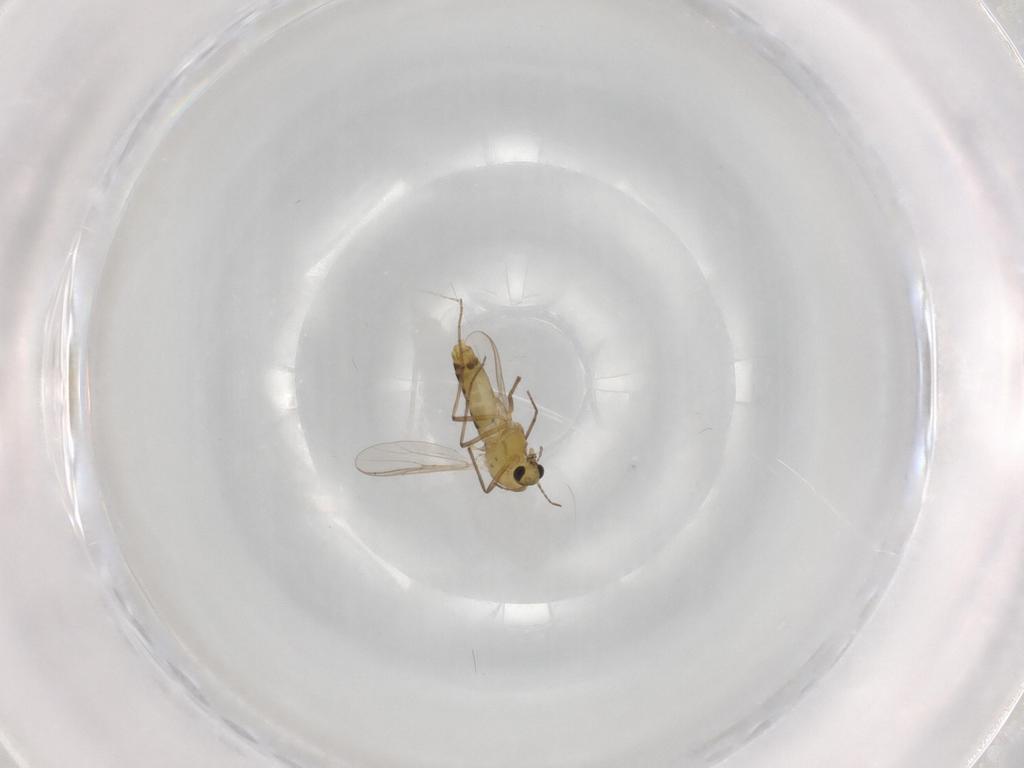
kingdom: Animalia
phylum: Arthropoda
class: Insecta
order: Diptera
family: Chironomidae
